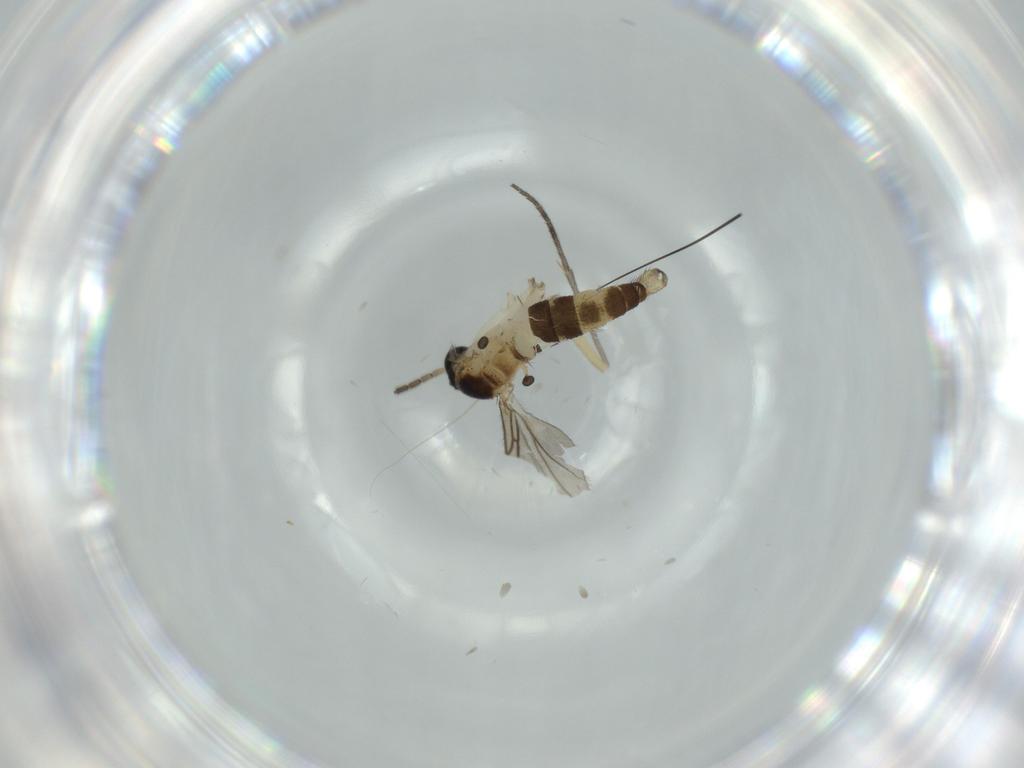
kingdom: Animalia
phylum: Arthropoda
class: Insecta
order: Diptera
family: Sciaridae
